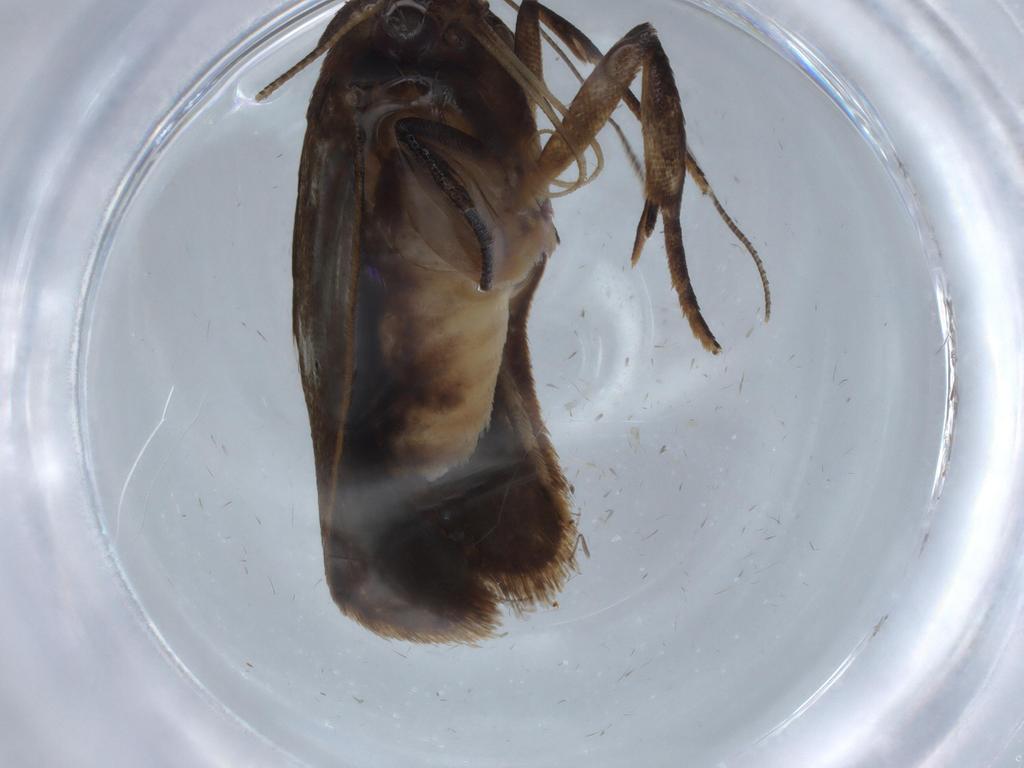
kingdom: Animalia
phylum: Arthropoda
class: Insecta
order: Lepidoptera
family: Gelechiidae
